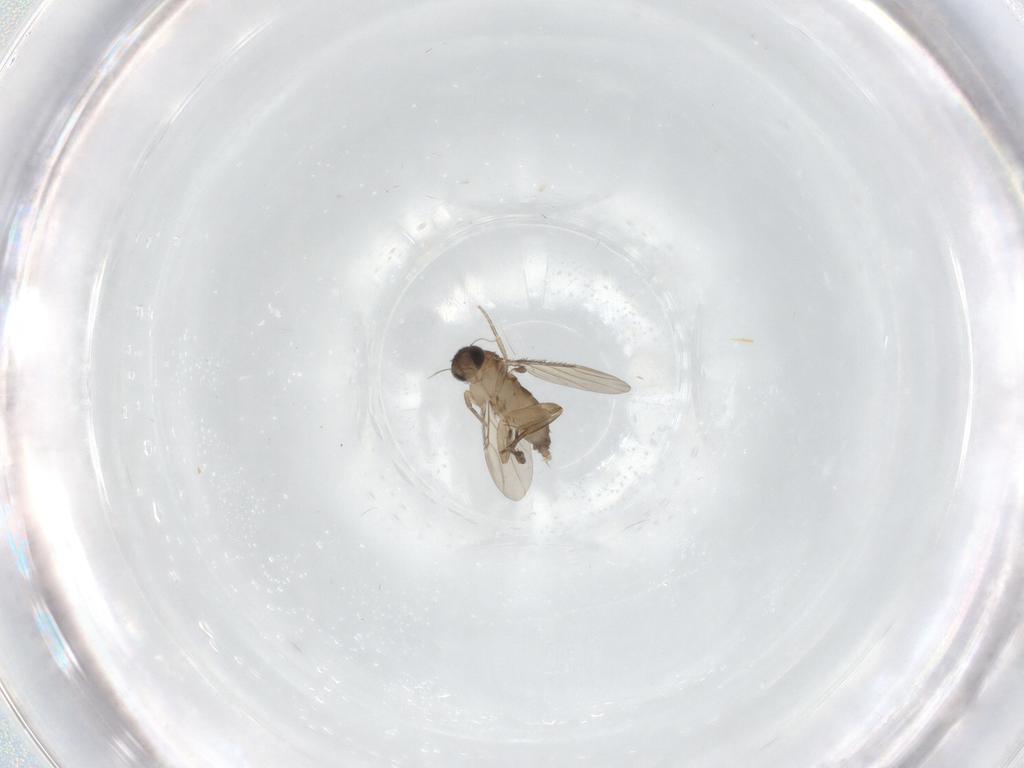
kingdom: Animalia
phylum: Arthropoda
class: Insecta
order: Diptera
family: Phoridae
